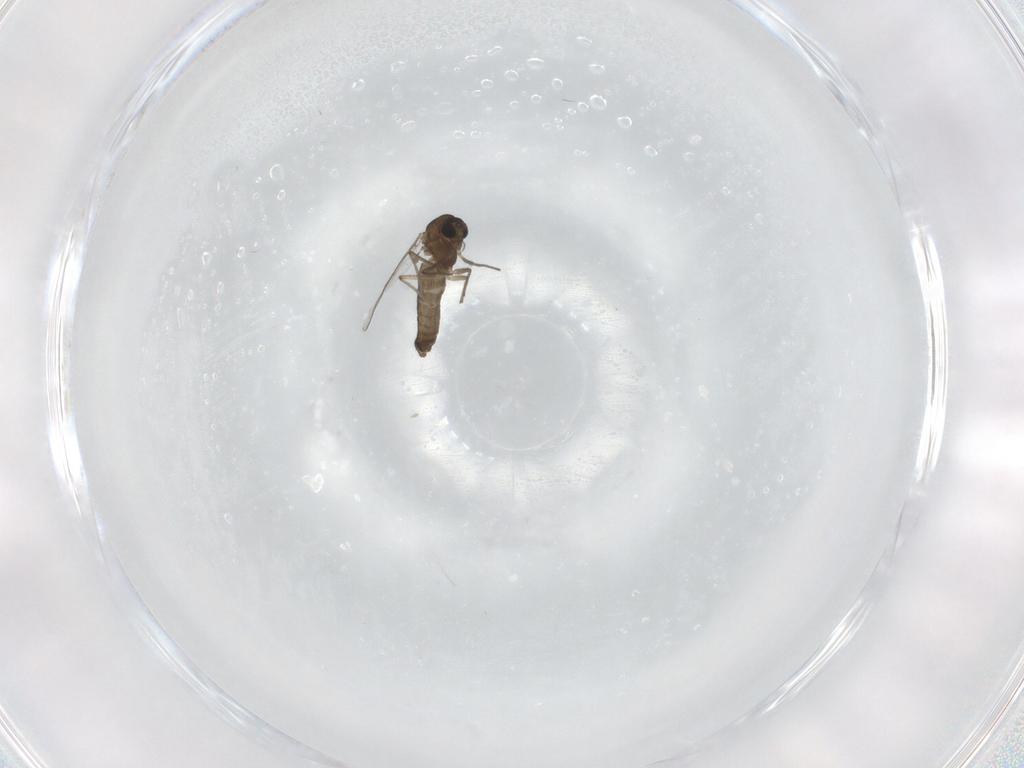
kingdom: Animalia
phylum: Arthropoda
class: Insecta
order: Diptera
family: Chironomidae
